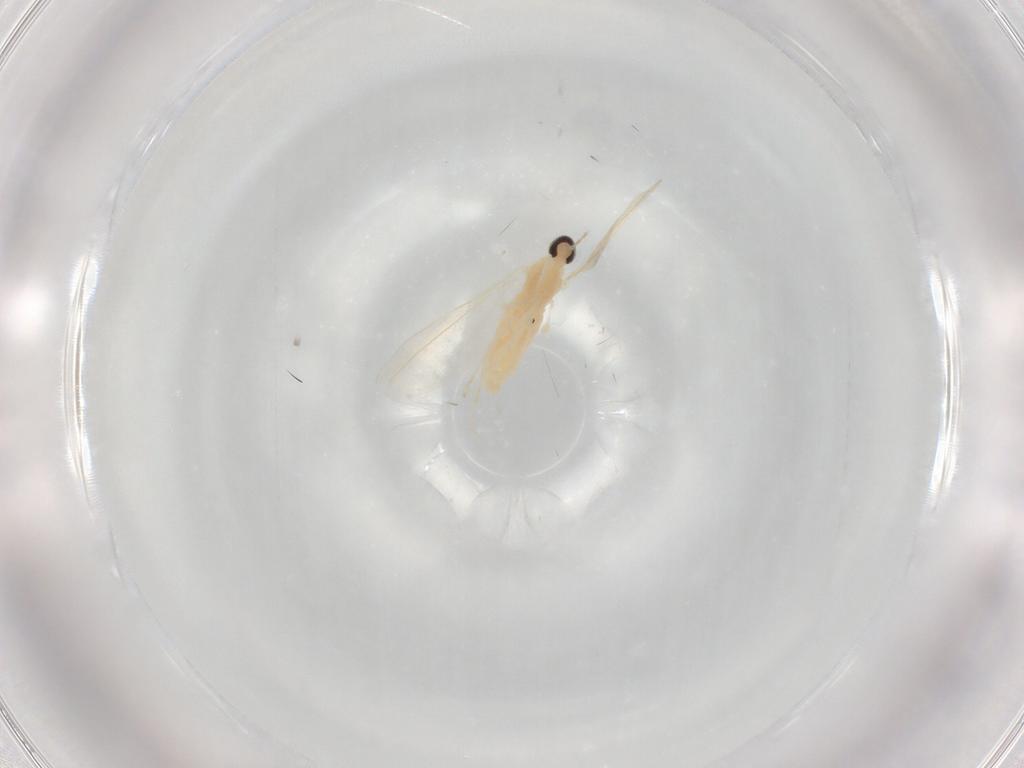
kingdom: Animalia
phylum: Arthropoda
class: Insecta
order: Diptera
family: Cecidomyiidae
